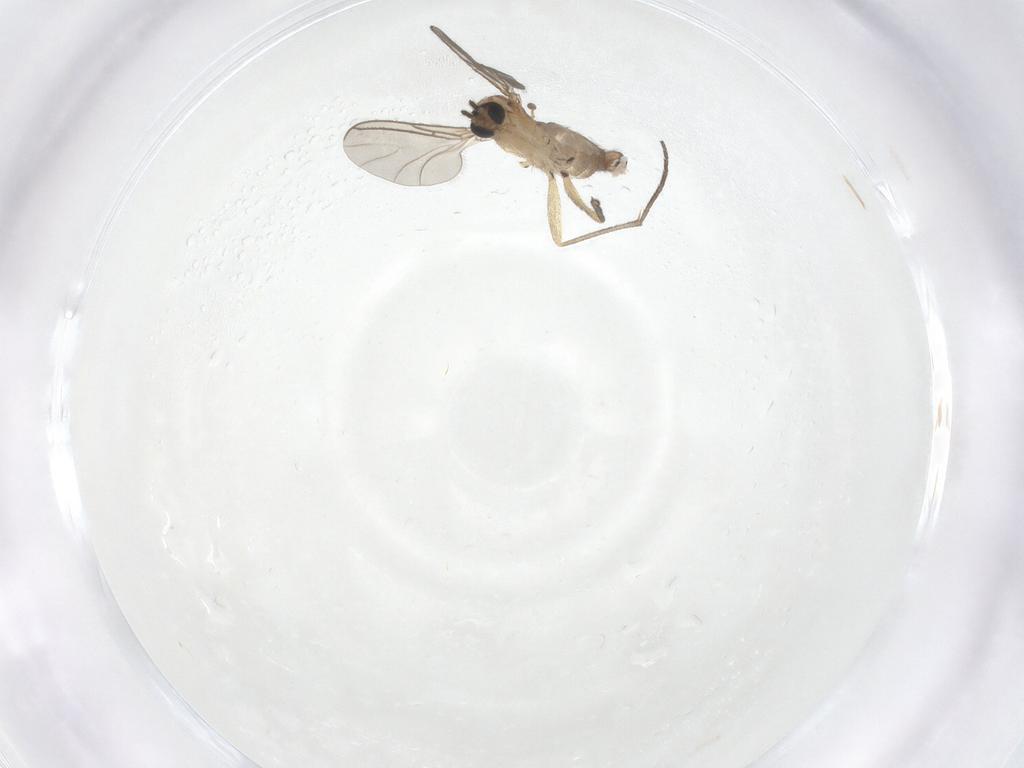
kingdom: Animalia
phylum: Arthropoda
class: Insecta
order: Diptera
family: Sciaridae
